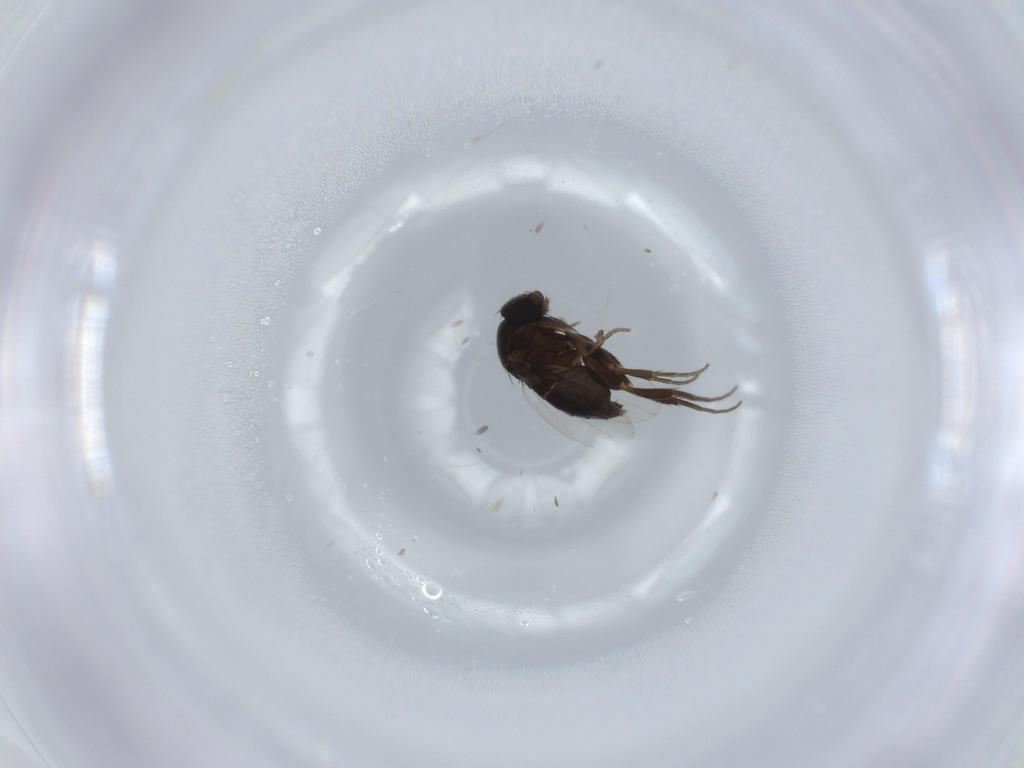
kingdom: Animalia
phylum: Arthropoda
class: Insecta
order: Diptera
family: Phoridae
